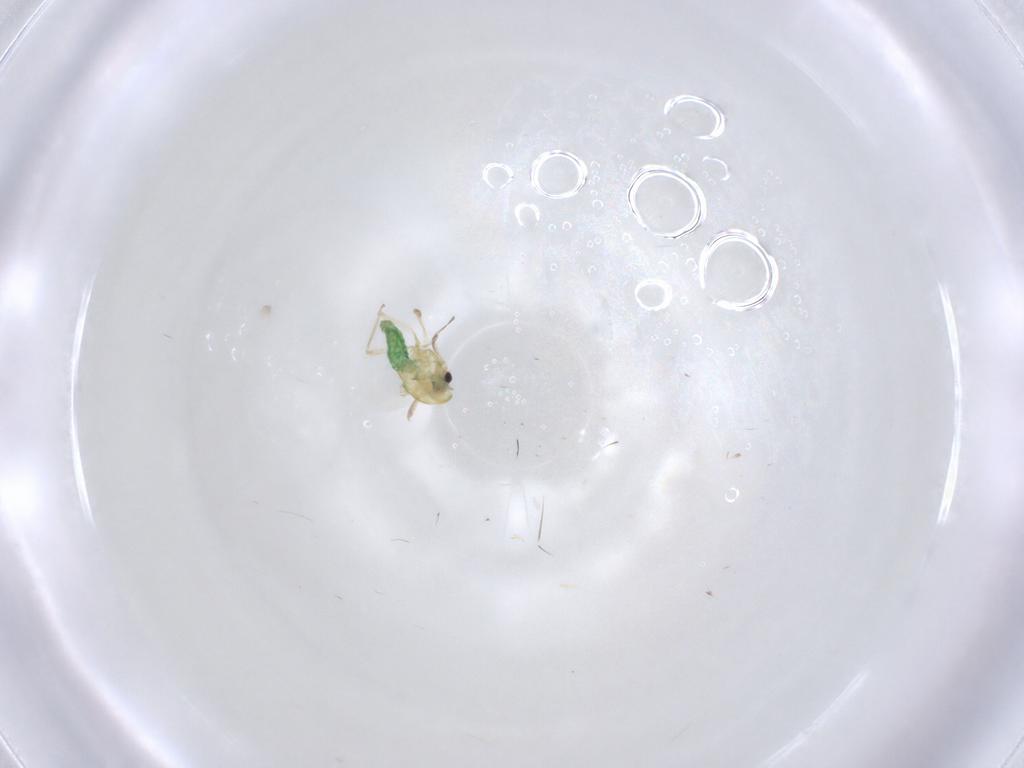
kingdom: Animalia
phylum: Arthropoda
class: Insecta
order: Diptera
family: Chironomidae
